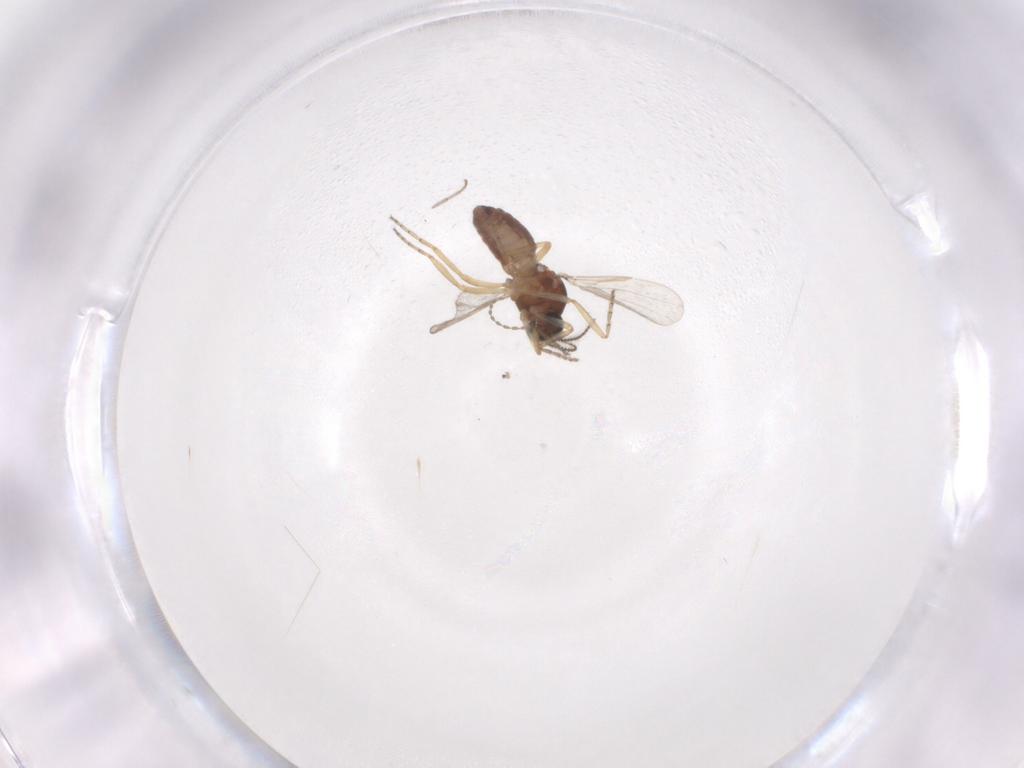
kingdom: Animalia
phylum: Arthropoda
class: Insecta
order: Diptera
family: Ceratopogonidae
